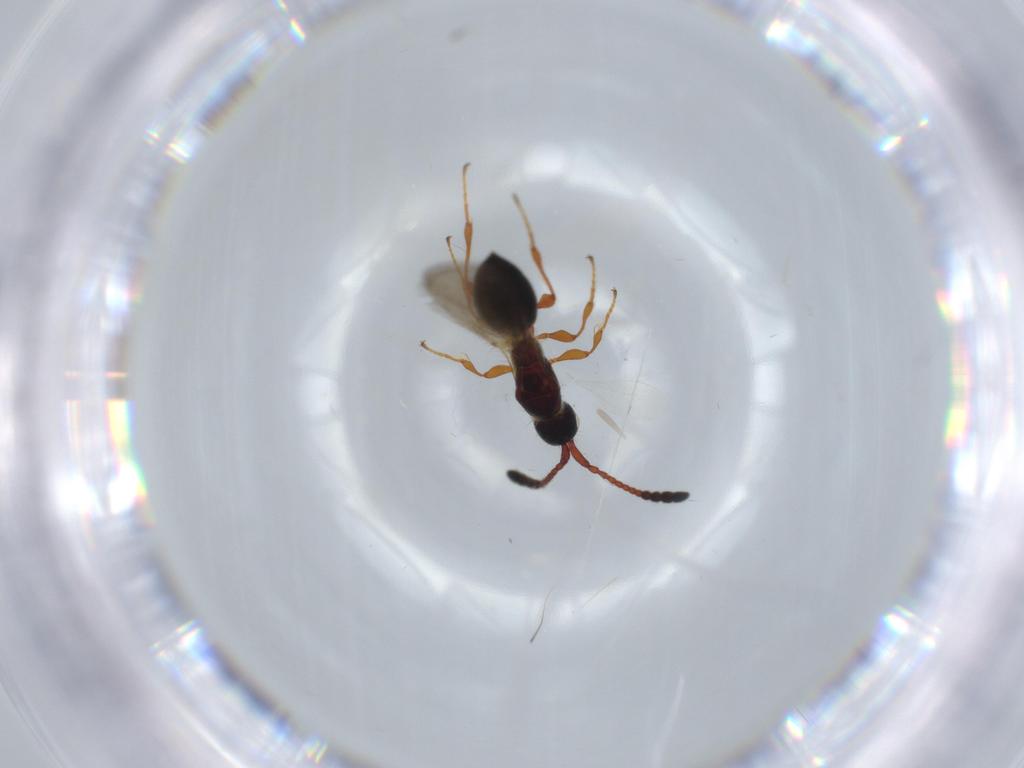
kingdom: Animalia
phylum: Arthropoda
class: Insecta
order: Hymenoptera
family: Diapriidae
